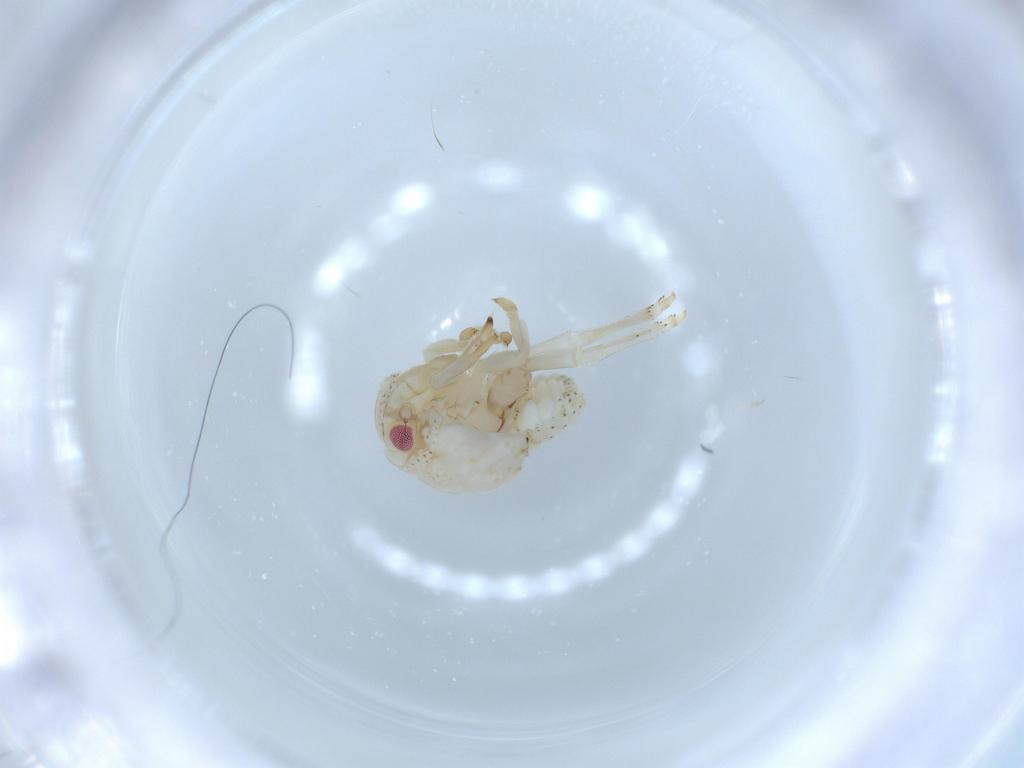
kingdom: Animalia
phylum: Arthropoda
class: Insecta
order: Hemiptera
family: Acanaloniidae
